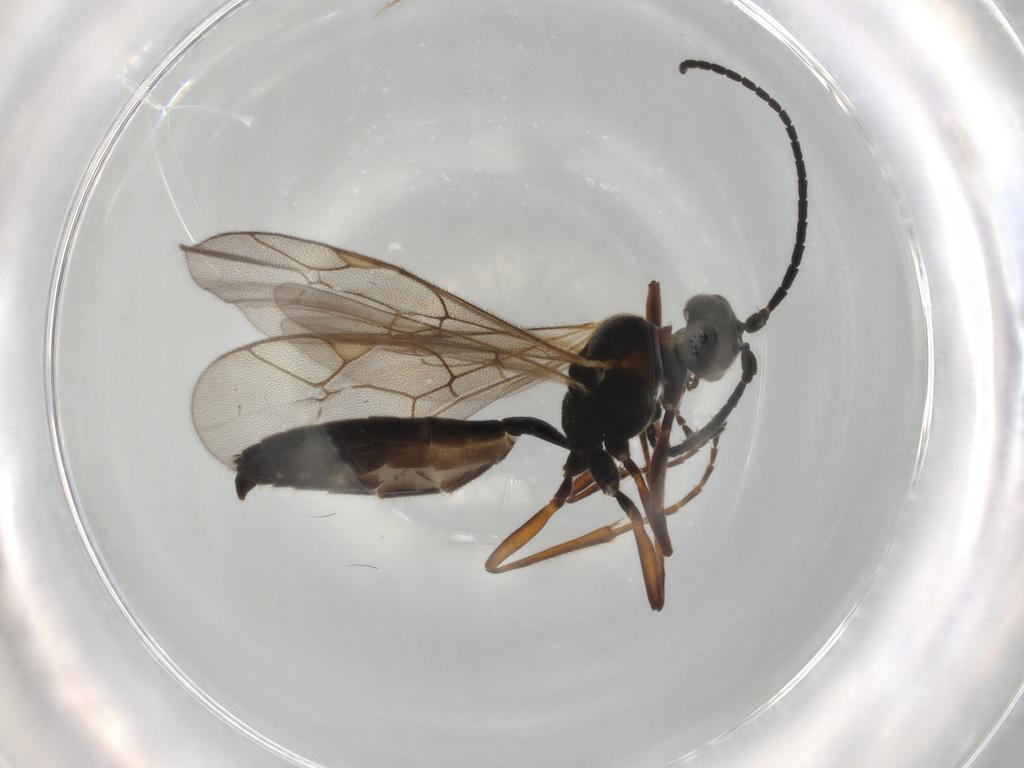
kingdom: Animalia
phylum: Arthropoda
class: Insecta
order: Hymenoptera
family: Ichneumonidae
